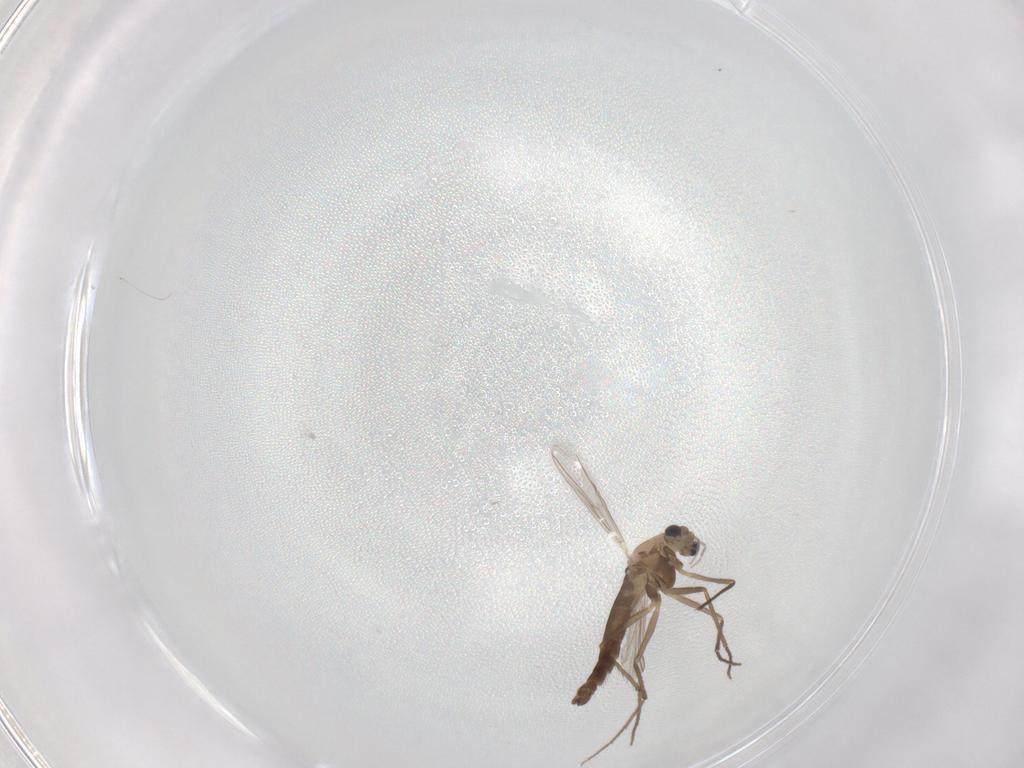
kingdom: Animalia
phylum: Arthropoda
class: Insecta
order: Diptera
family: Chironomidae
